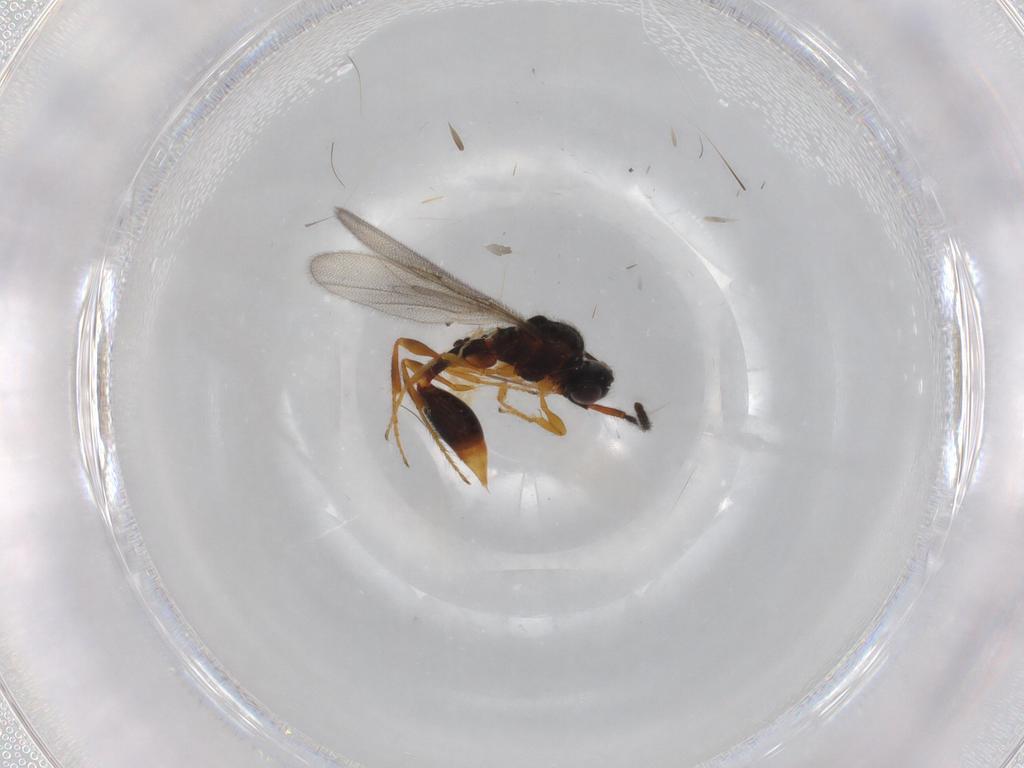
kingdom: Animalia
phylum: Arthropoda
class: Insecta
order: Hymenoptera
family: Diapriidae
